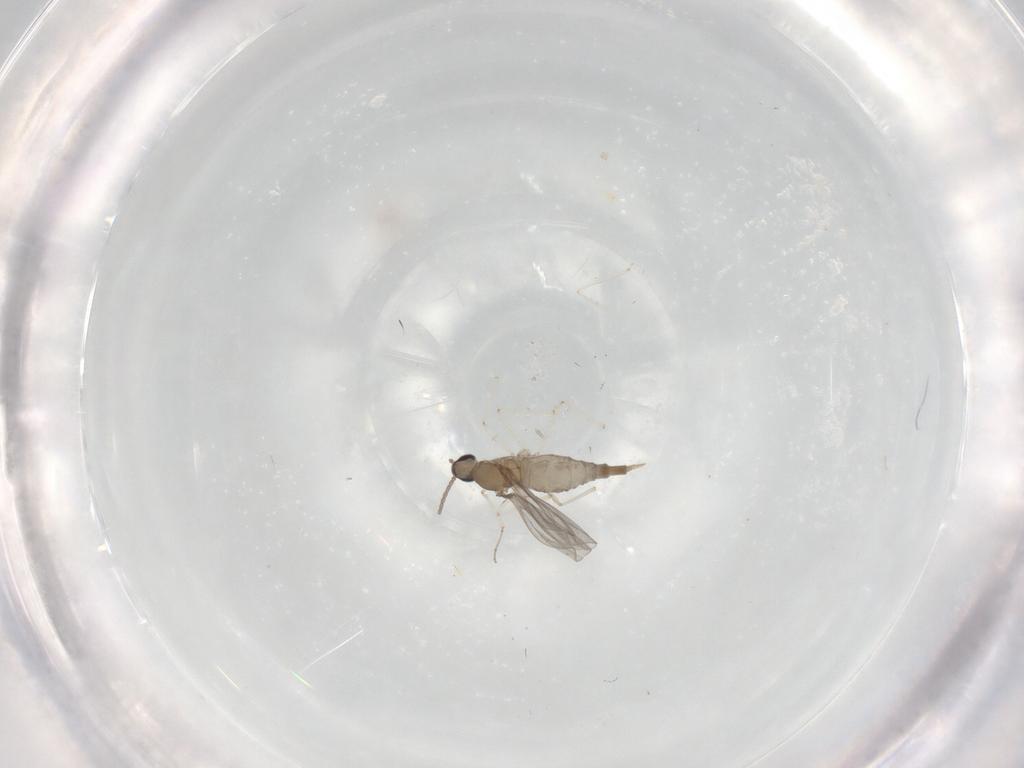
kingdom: Animalia
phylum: Arthropoda
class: Insecta
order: Diptera
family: Cecidomyiidae
